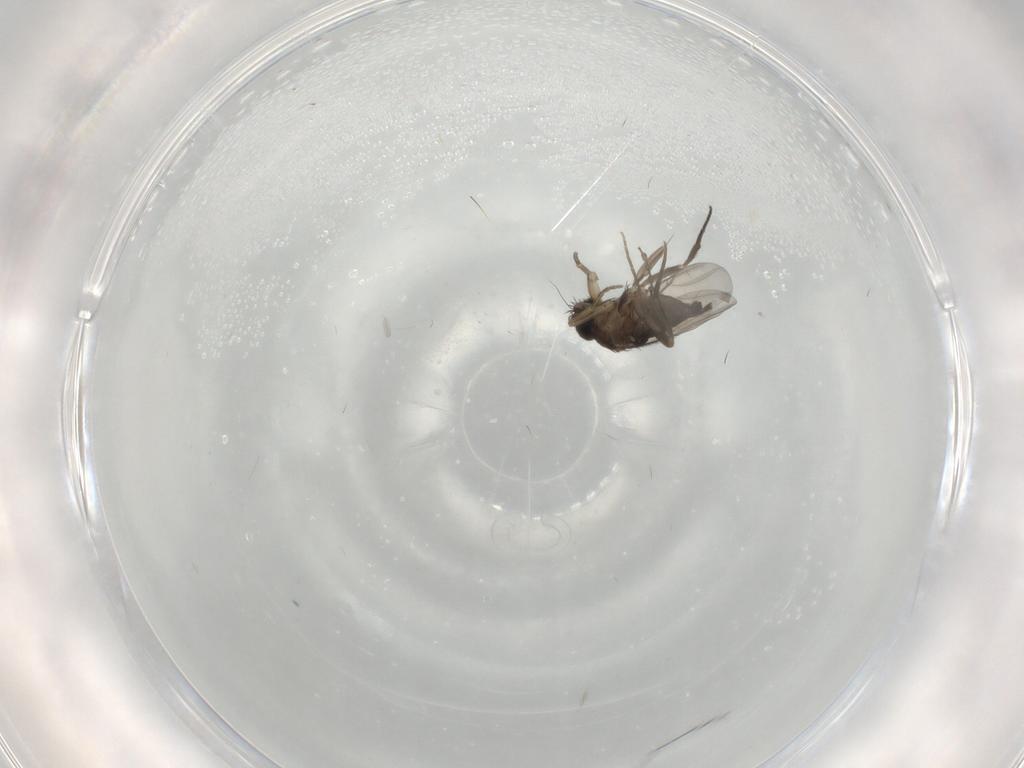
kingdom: Animalia
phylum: Arthropoda
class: Insecta
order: Diptera
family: Phoridae
